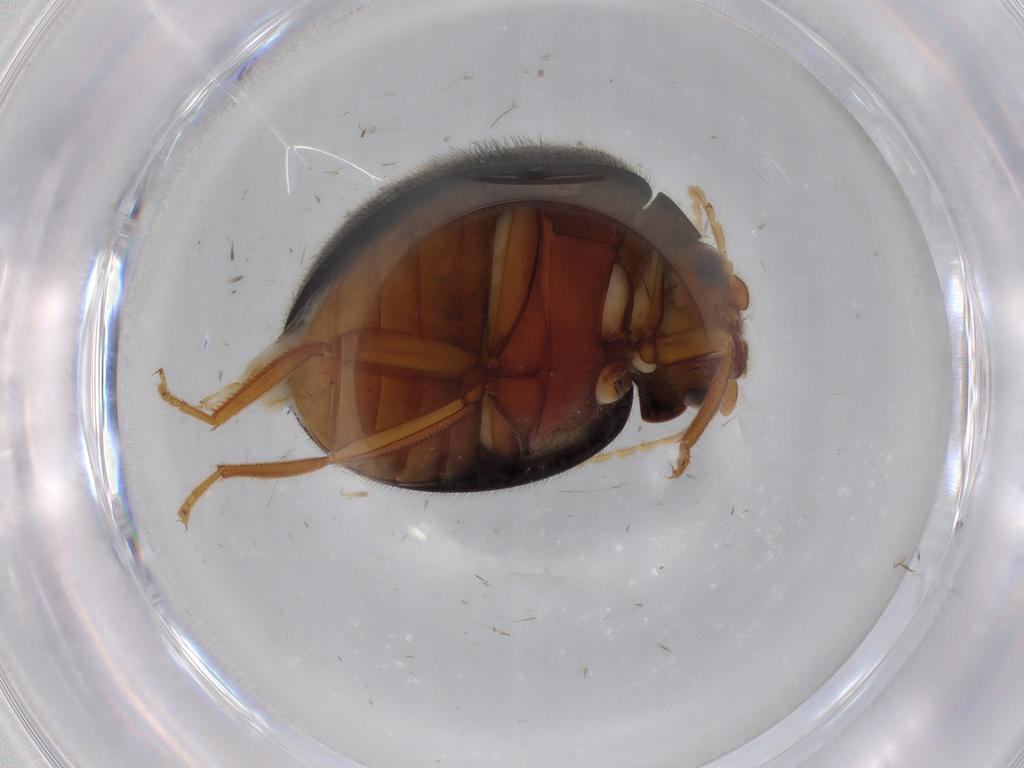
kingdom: Animalia
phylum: Arthropoda
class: Insecta
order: Coleoptera
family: Scirtidae
